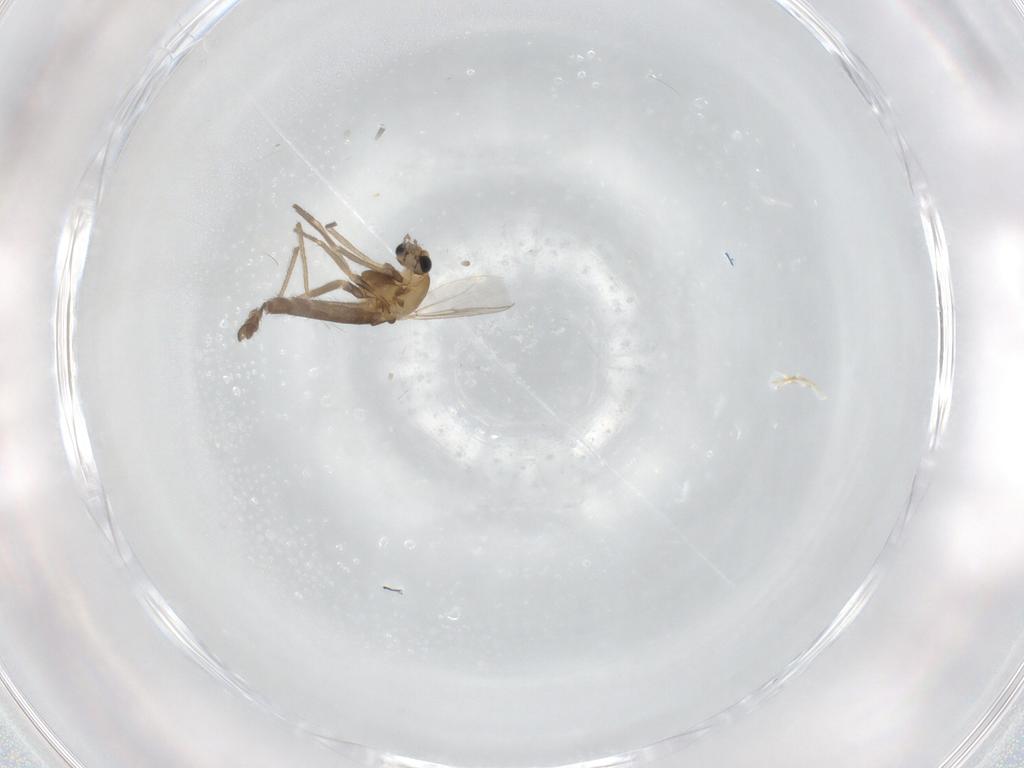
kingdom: Animalia
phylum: Arthropoda
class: Insecta
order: Diptera
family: Chironomidae
